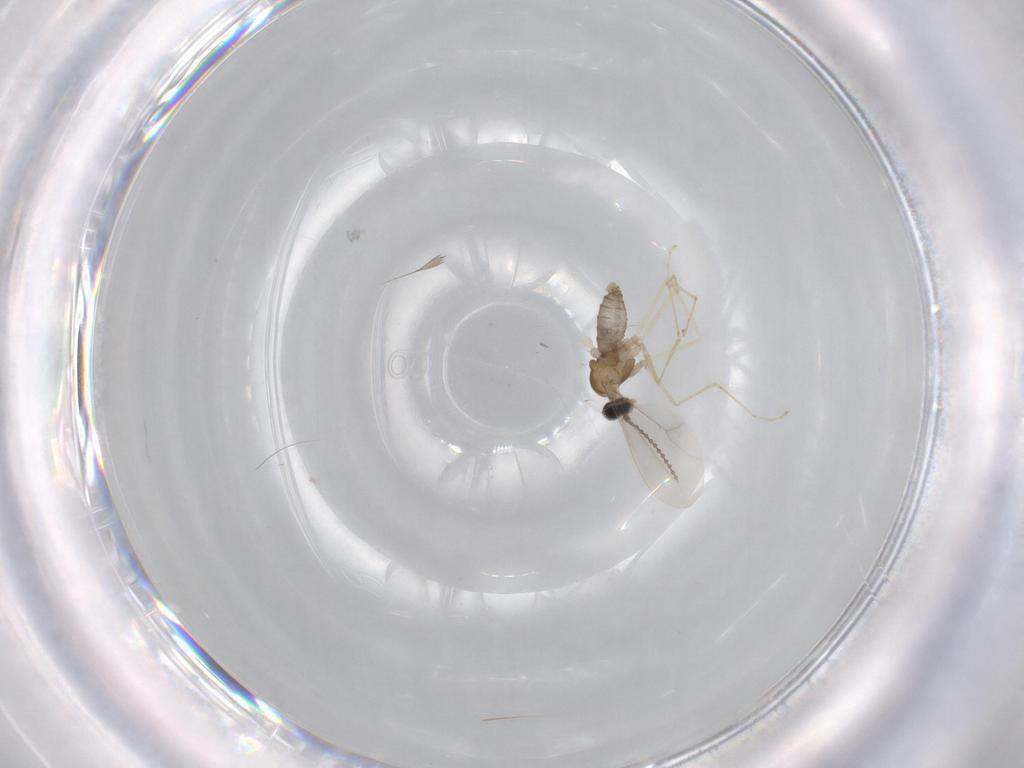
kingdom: Animalia
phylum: Arthropoda
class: Insecta
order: Diptera
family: Cecidomyiidae
